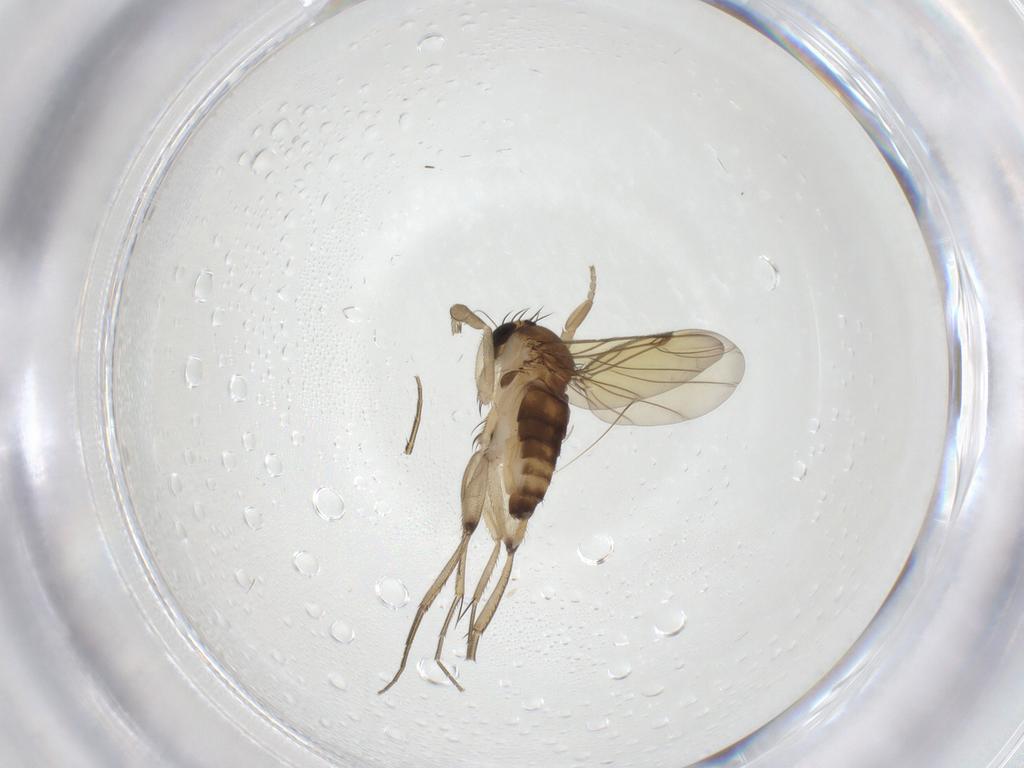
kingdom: Animalia
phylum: Arthropoda
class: Insecta
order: Diptera
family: Phoridae
